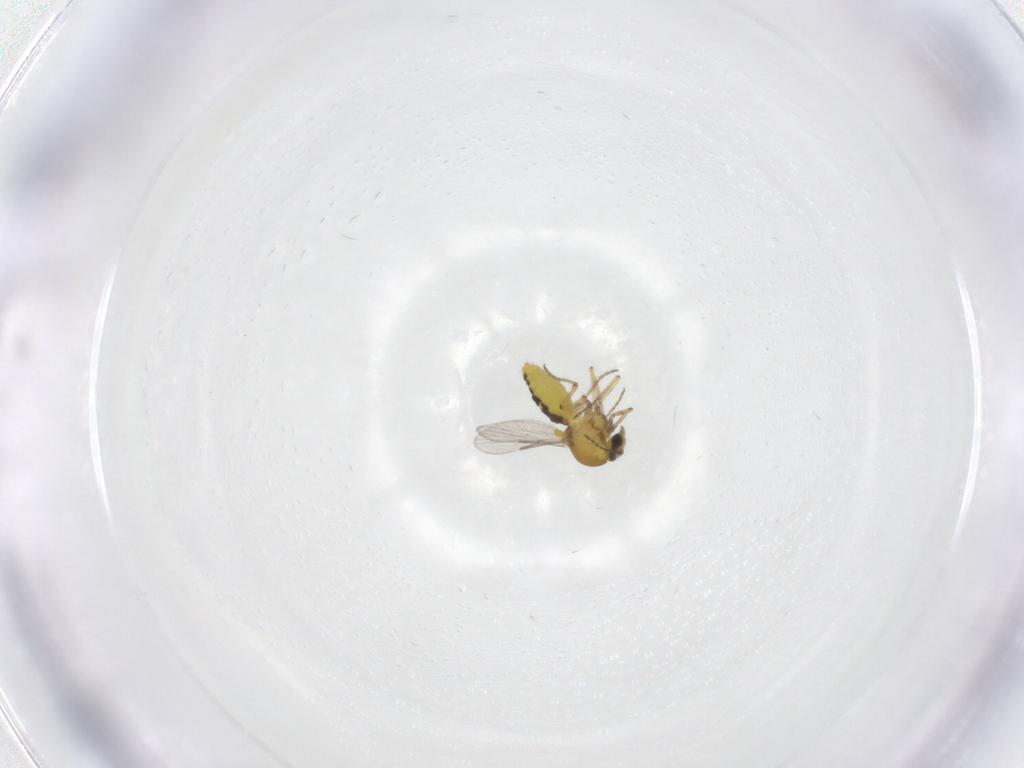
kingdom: Animalia
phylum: Arthropoda
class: Insecta
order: Diptera
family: Ceratopogonidae
